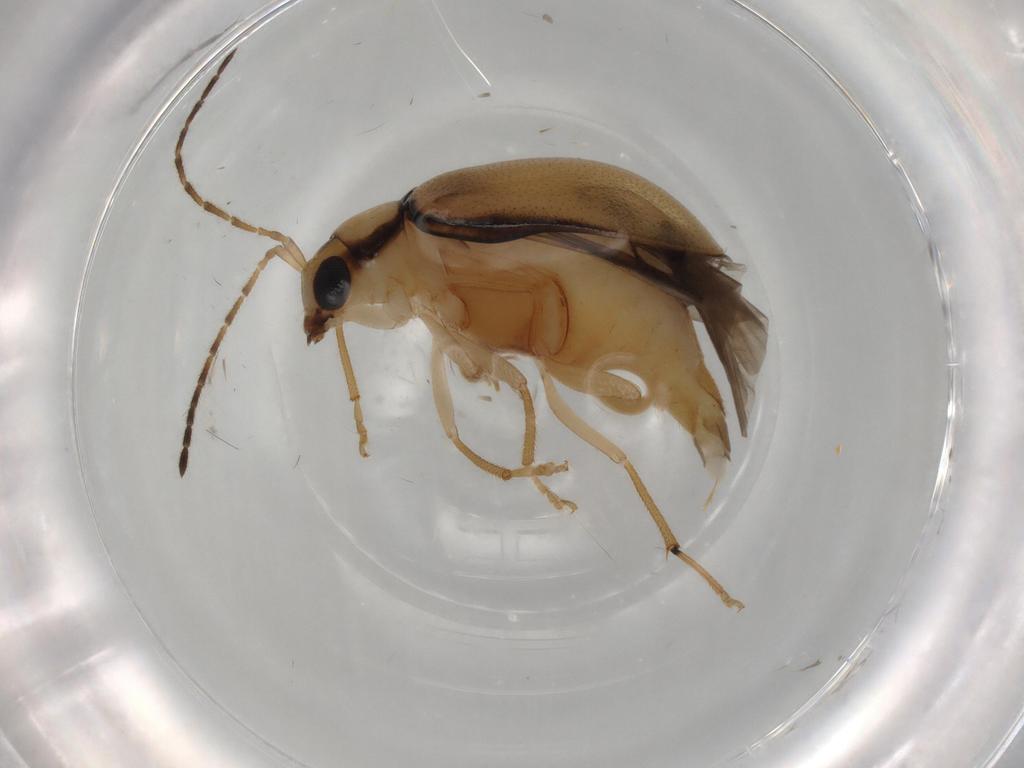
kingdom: Animalia
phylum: Arthropoda
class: Insecta
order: Coleoptera
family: Chrysomelidae
